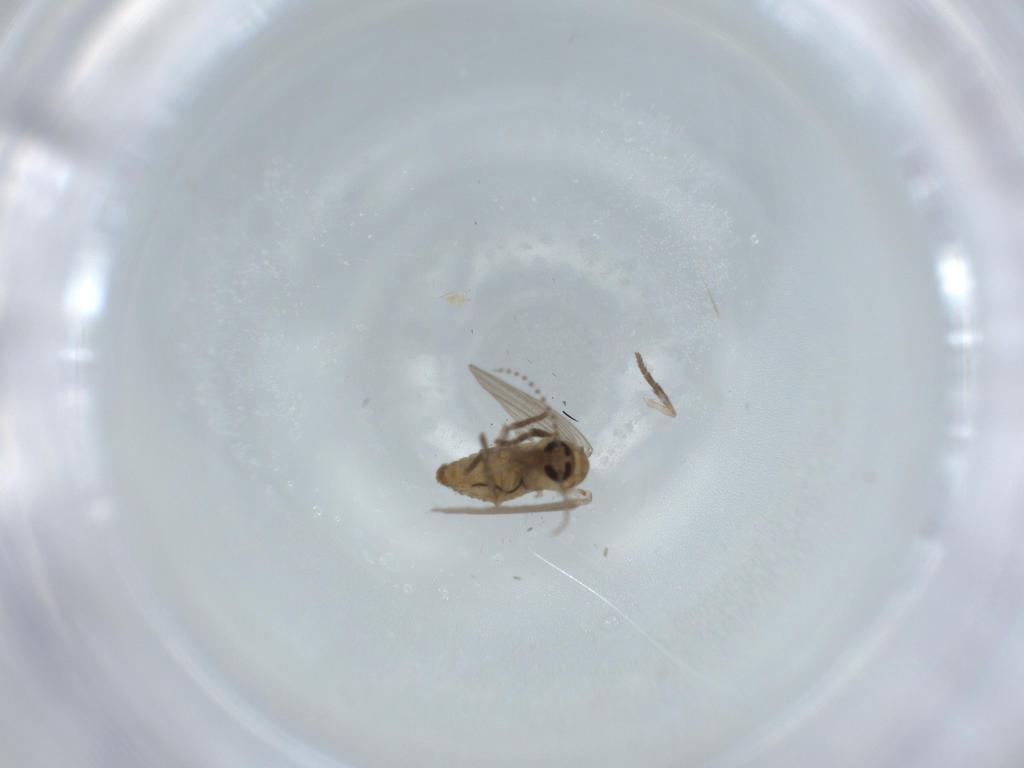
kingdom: Animalia
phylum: Arthropoda
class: Insecta
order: Diptera
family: Psychodidae
